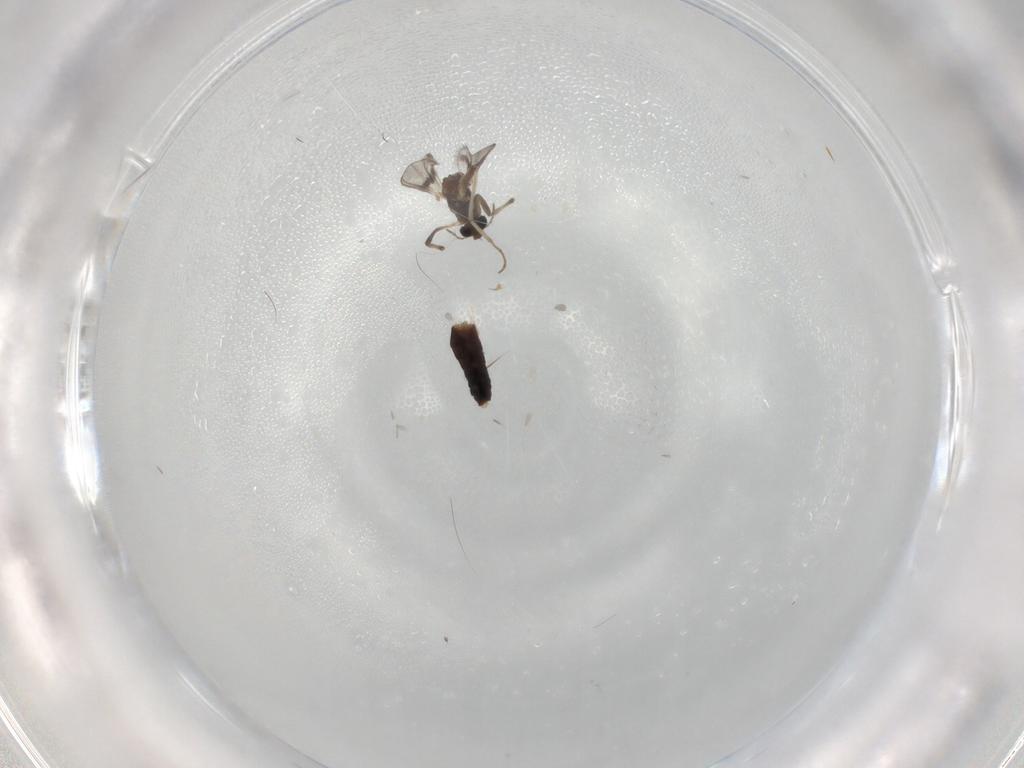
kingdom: Animalia
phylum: Arthropoda
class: Insecta
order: Diptera
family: Chironomidae
